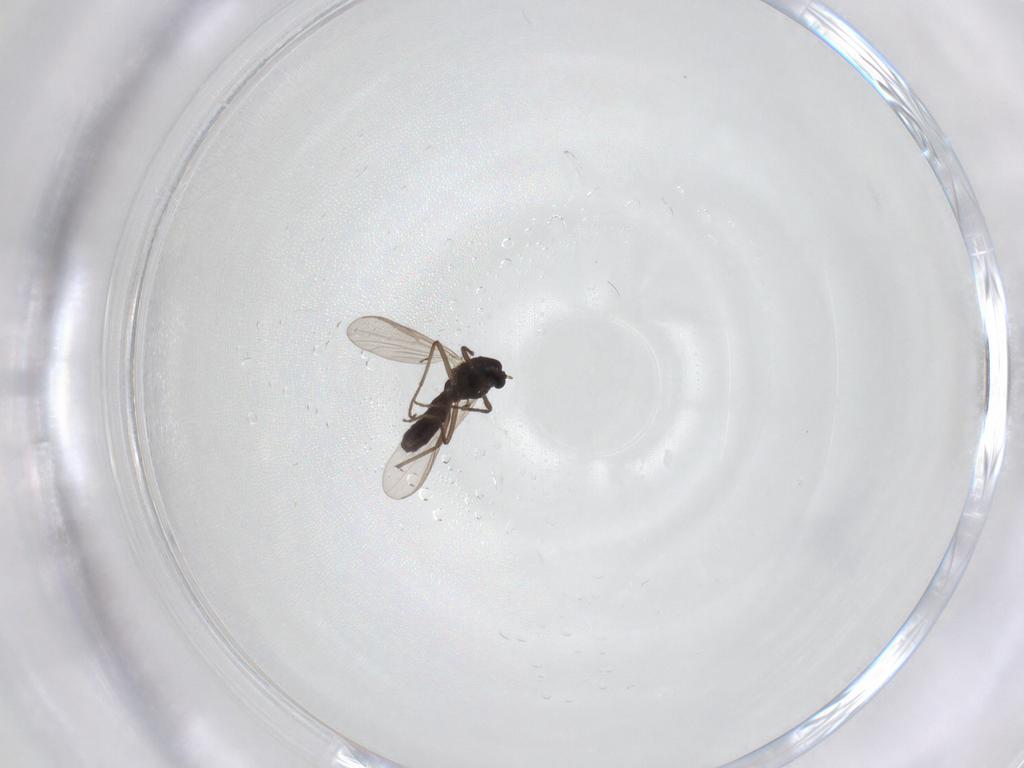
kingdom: Animalia
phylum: Arthropoda
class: Insecta
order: Diptera
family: Chironomidae
